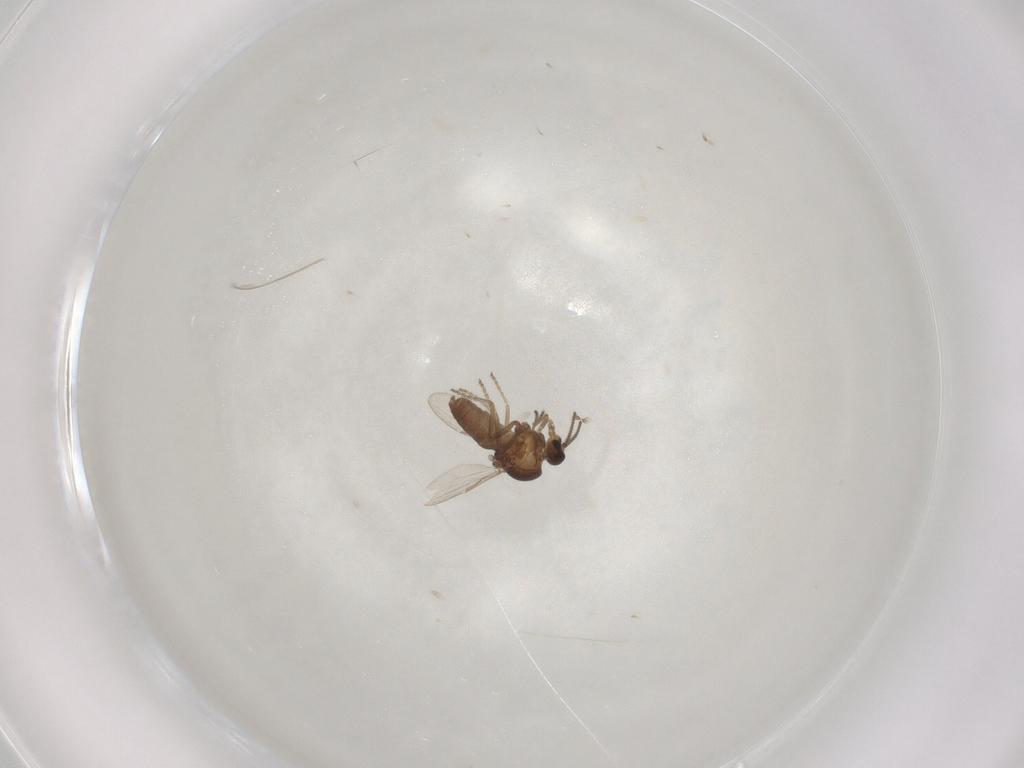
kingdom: Animalia
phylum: Arthropoda
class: Insecta
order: Diptera
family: Ceratopogonidae
